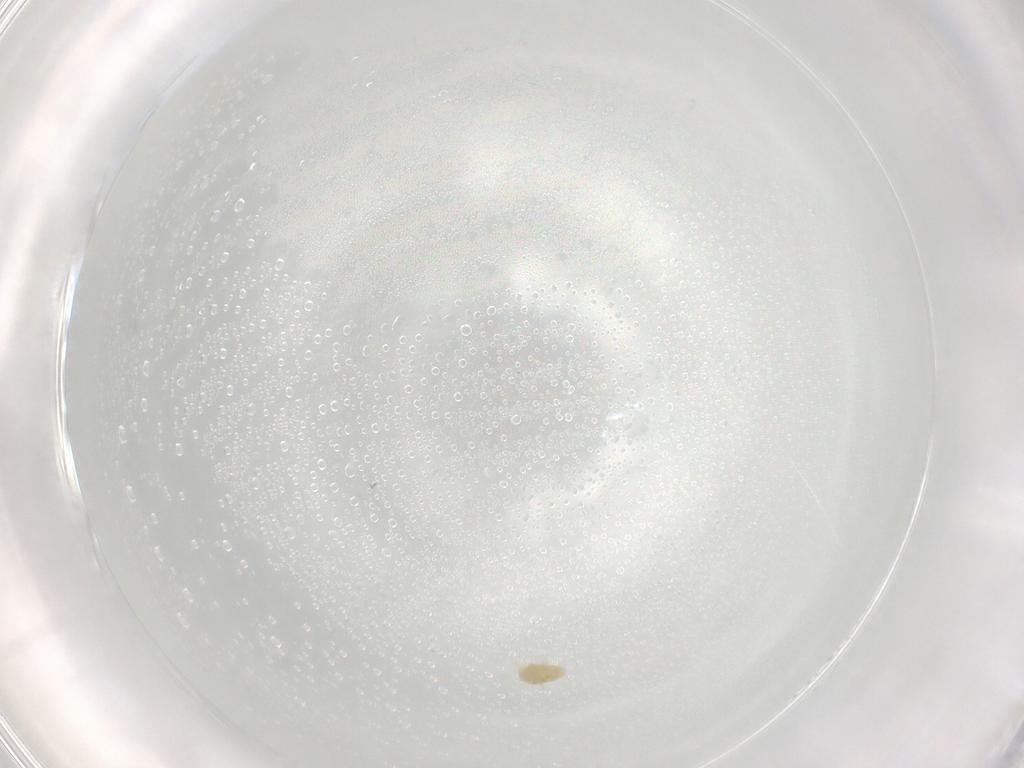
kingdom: Animalia
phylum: Arthropoda
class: Arachnida
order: Trombidiformes
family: Eupodidae
